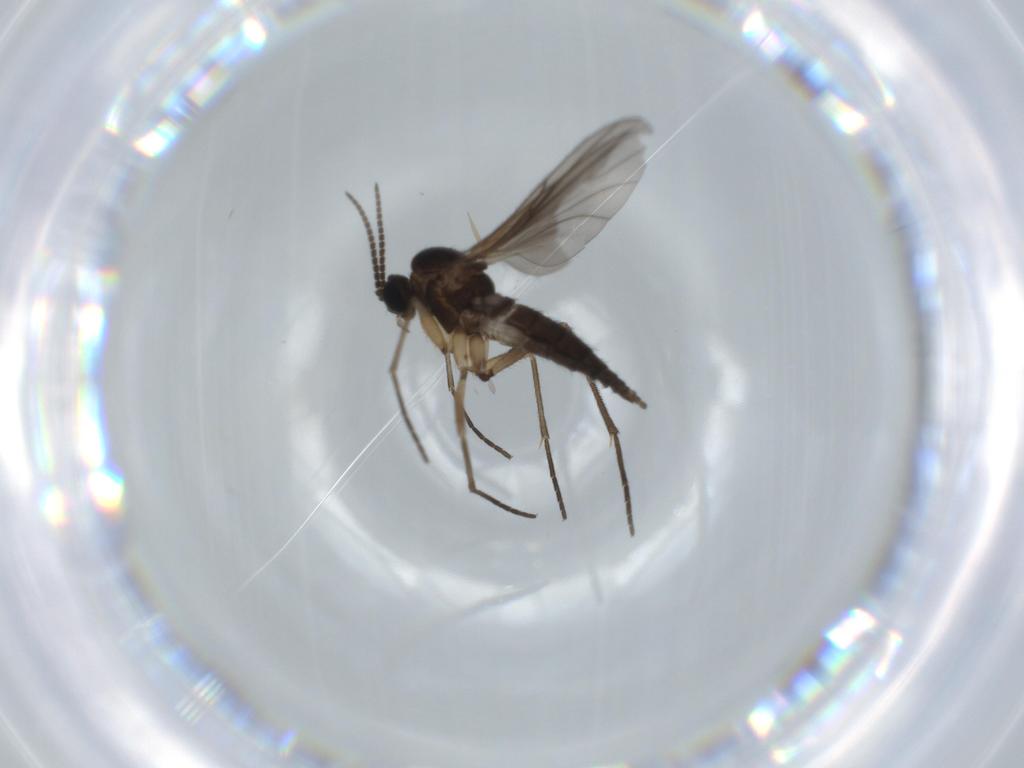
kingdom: Animalia
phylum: Arthropoda
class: Insecta
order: Diptera
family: Sciaridae
